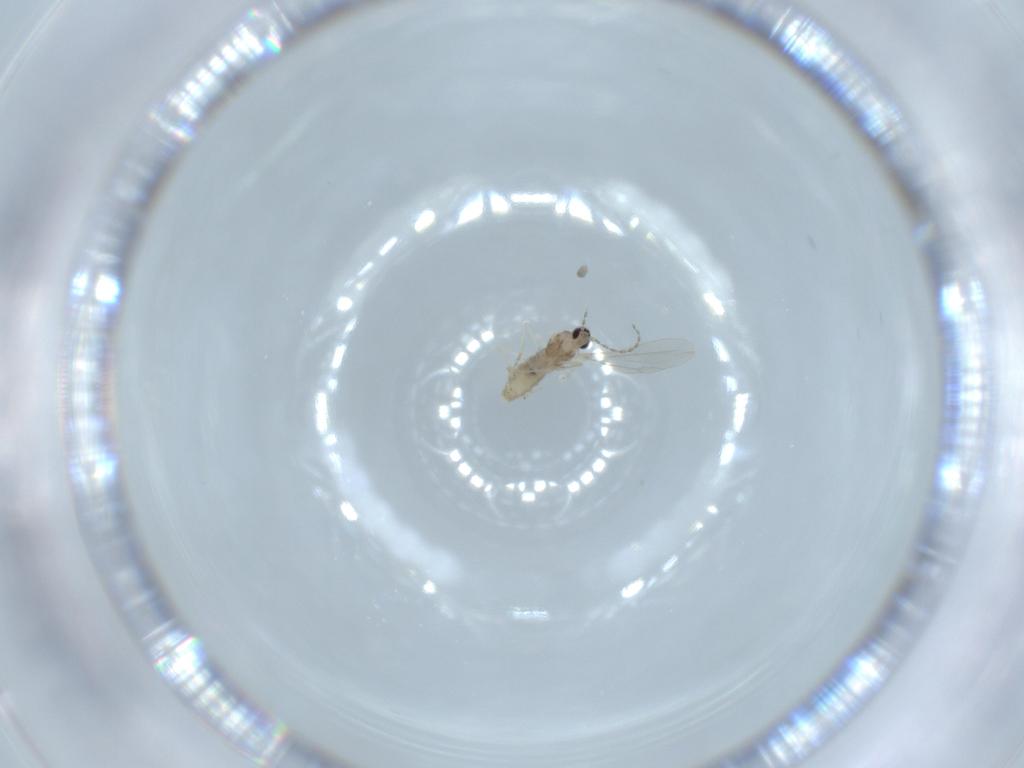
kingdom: Animalia
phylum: Arthropoda
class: Insecta
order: Diptera
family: Cecidomyiidae
